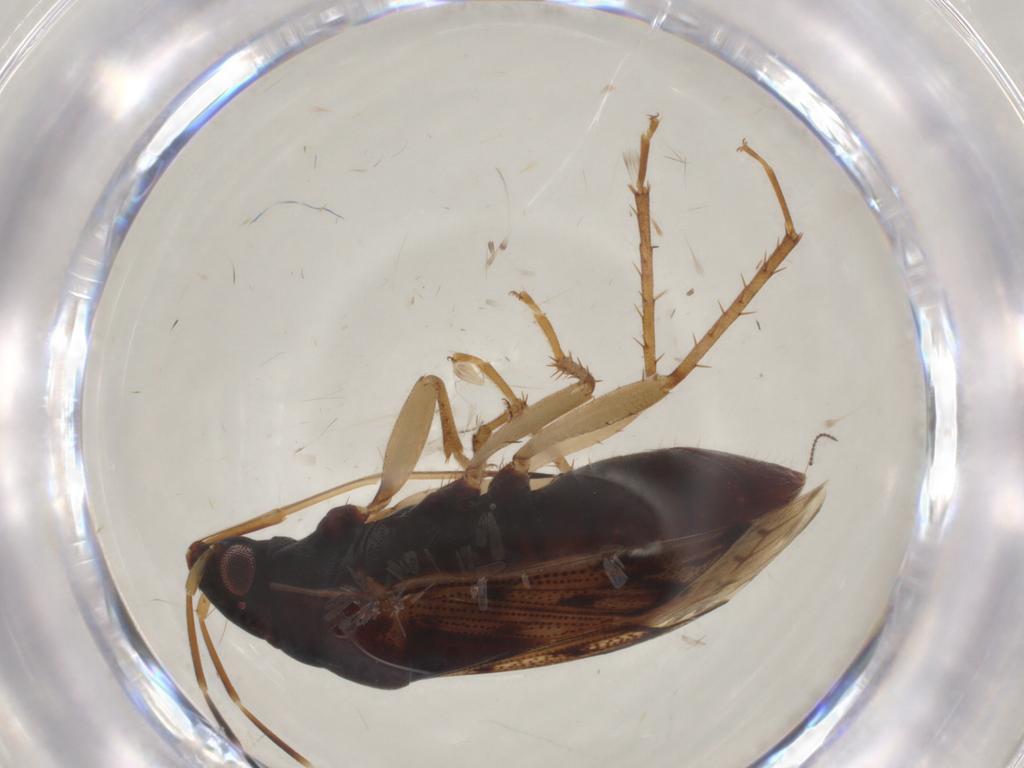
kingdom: Animalia
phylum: Arthropoda
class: Insecta
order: Hemiptera
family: Rhyparochromidae
